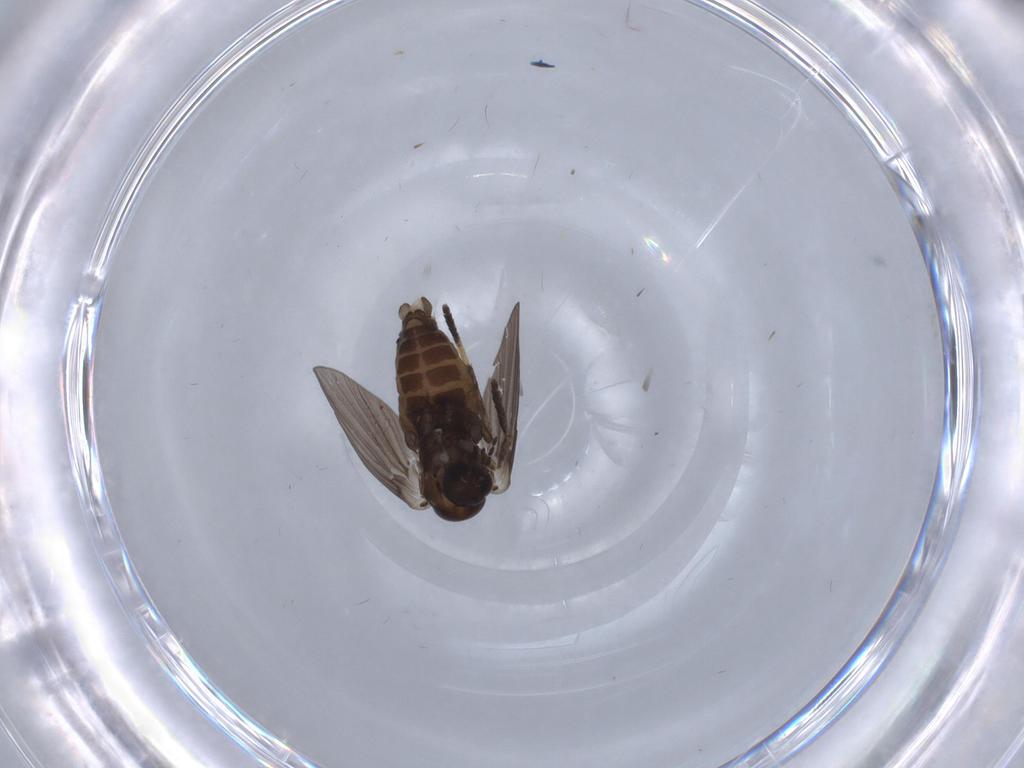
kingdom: Animalia
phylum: Arthropoda
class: Insecta
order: Diptera
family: Psychodidae
